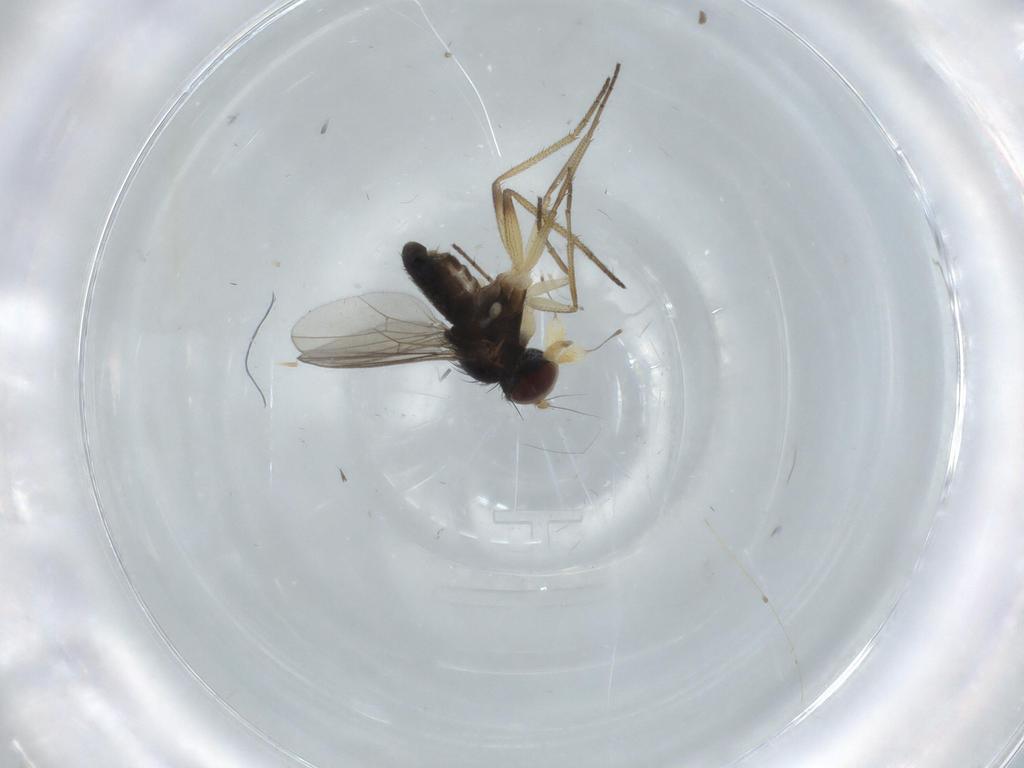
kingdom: Animalia
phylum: Arthropoda
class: Insecta
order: Diptera
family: Dolichopodidae
